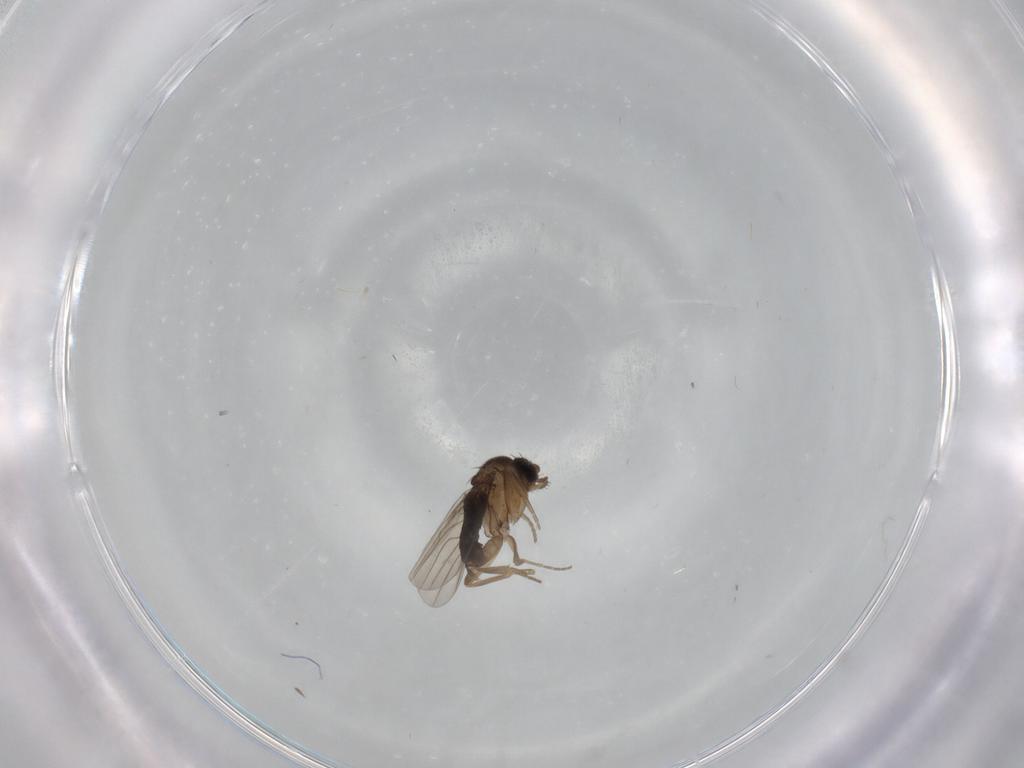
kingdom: Animalia
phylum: Arthropoda
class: Insecta
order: Diptera
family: Phoridae
